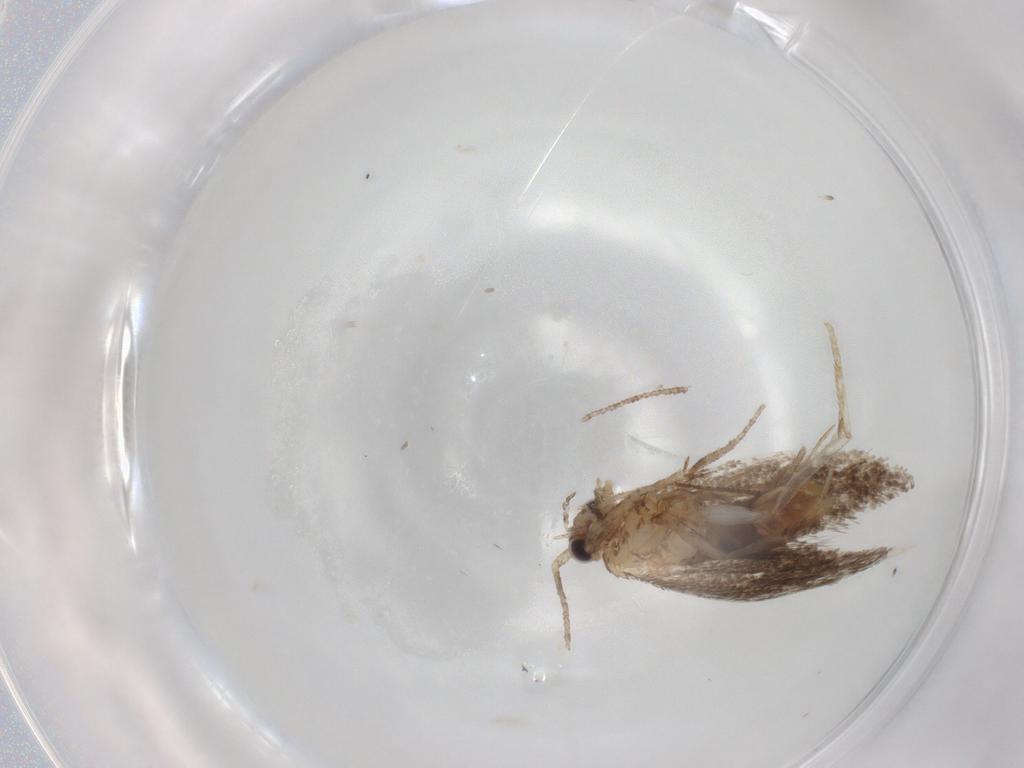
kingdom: Animalia
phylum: Arthropoda
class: Insecta
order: Lepidoptera
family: Tineidae
